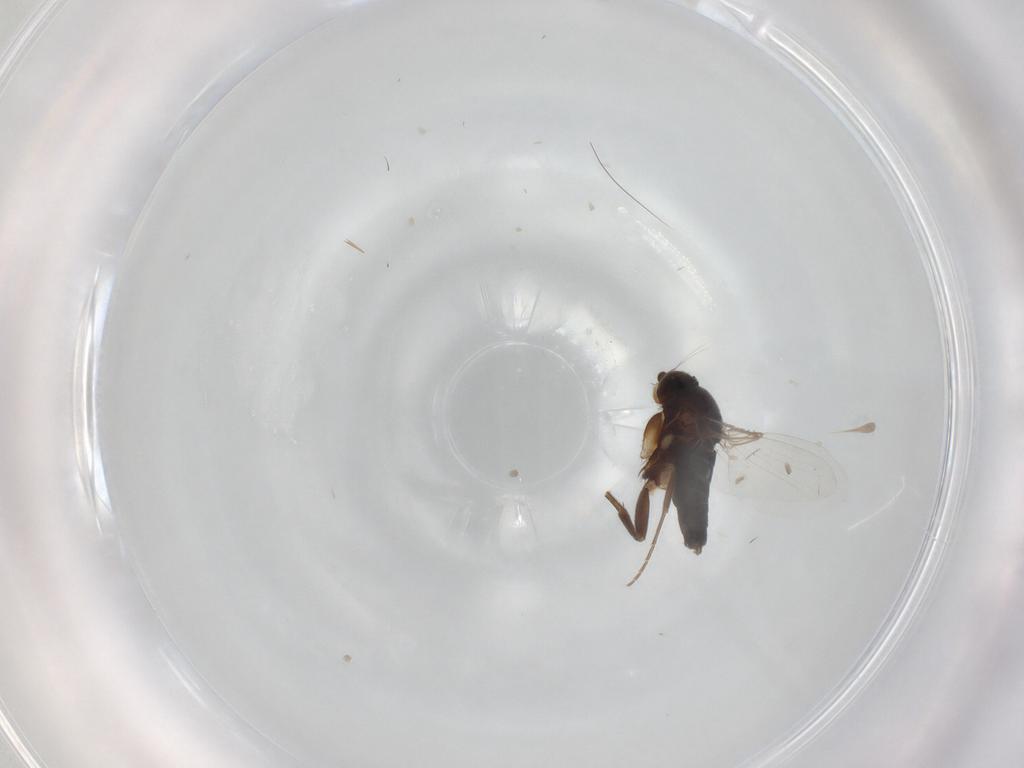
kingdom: Animalia
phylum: Arthropoda
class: Insecta
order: Diptera
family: Phoridae
